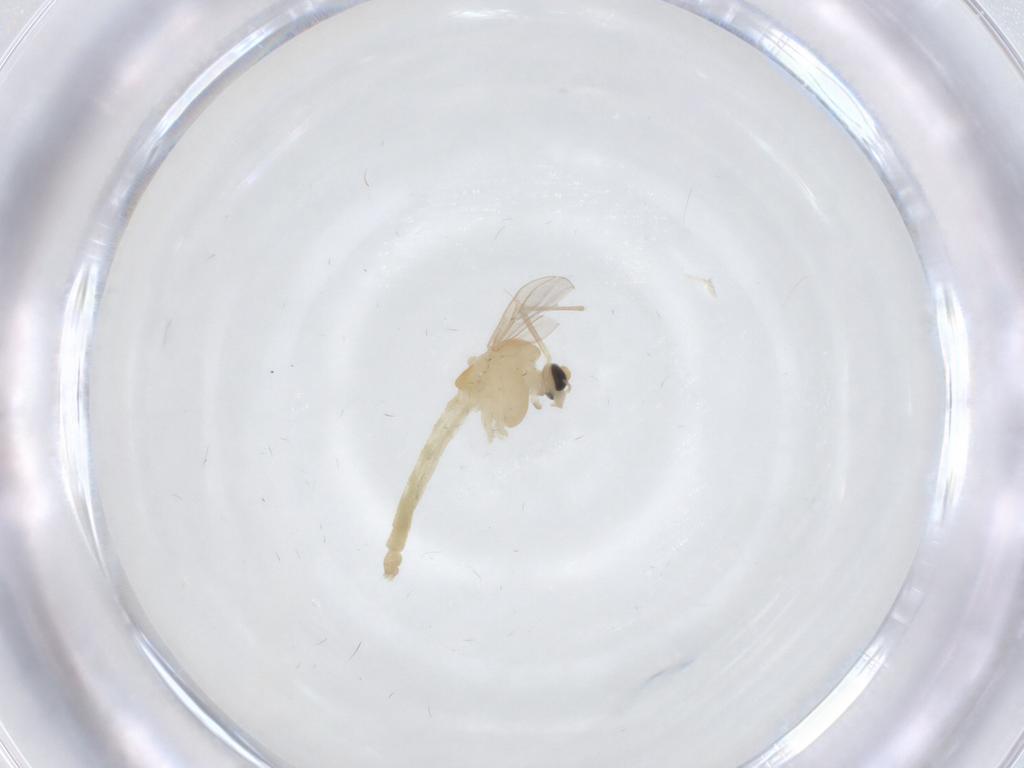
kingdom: Animalia
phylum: Arthropoda
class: Insecta
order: Diptera
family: Chironomidae
